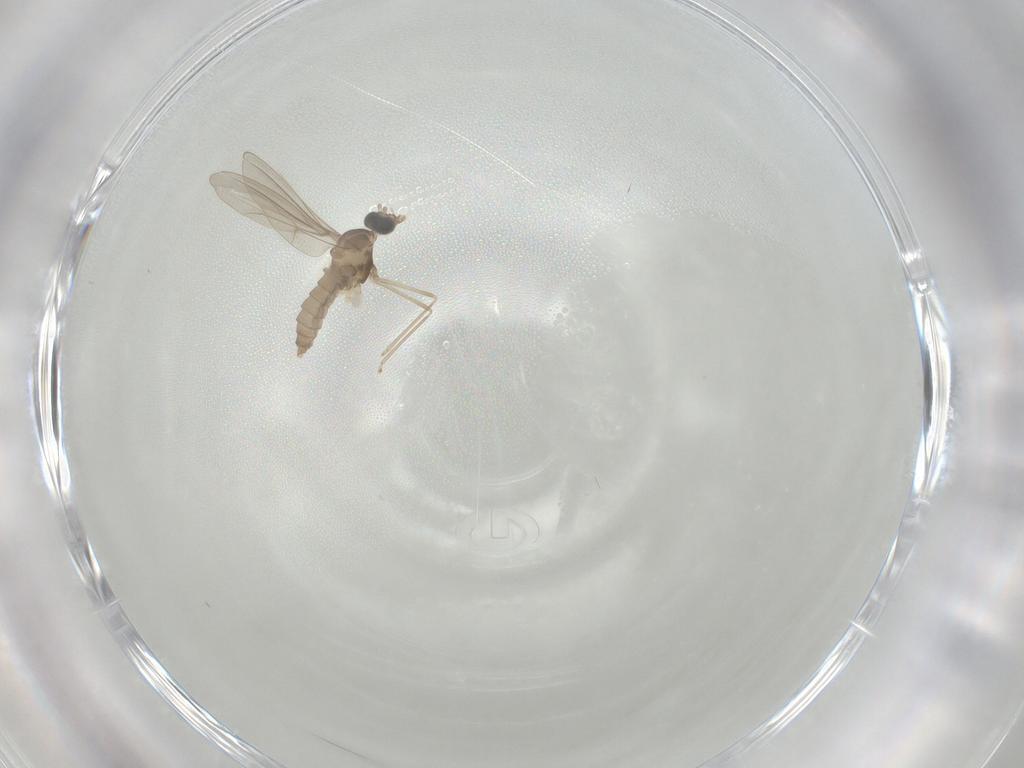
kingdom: Animalia
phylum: Arthropoda
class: Insecta
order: Diptera
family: Cecidomyiidae
